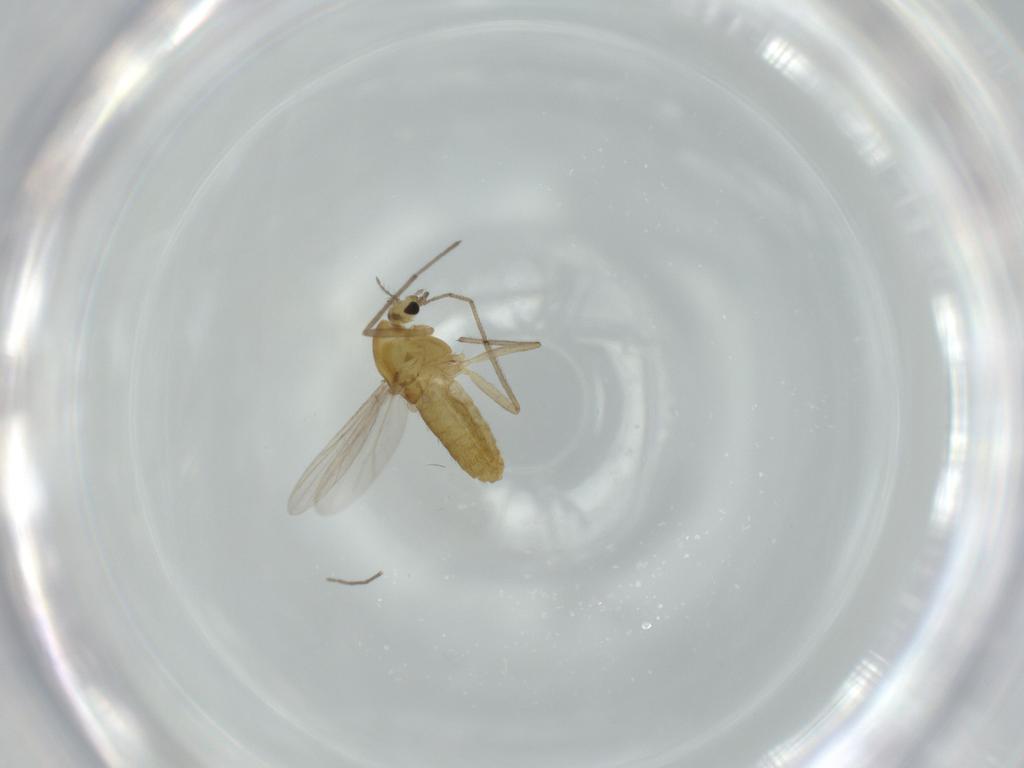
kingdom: Animalia
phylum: Arthropoda
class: Insecta
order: Diptera
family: Chironomidae
